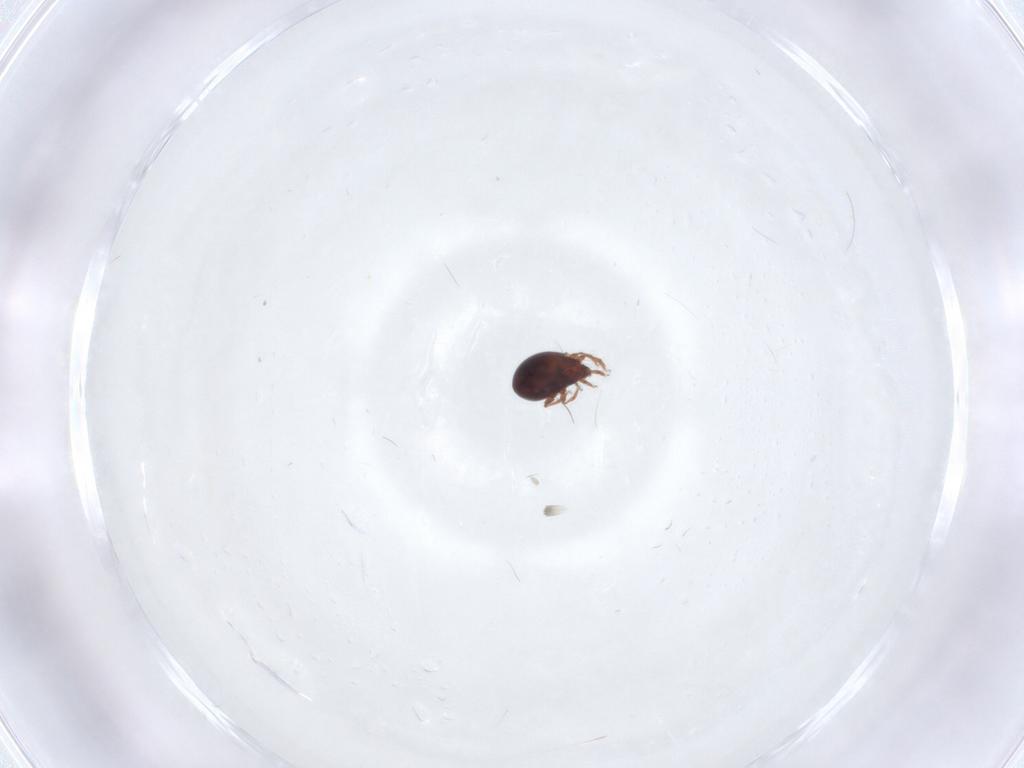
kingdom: Animalia
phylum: Arthropoda
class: Arachnida
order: Sarcoptiformes
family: Ceratozetidae
